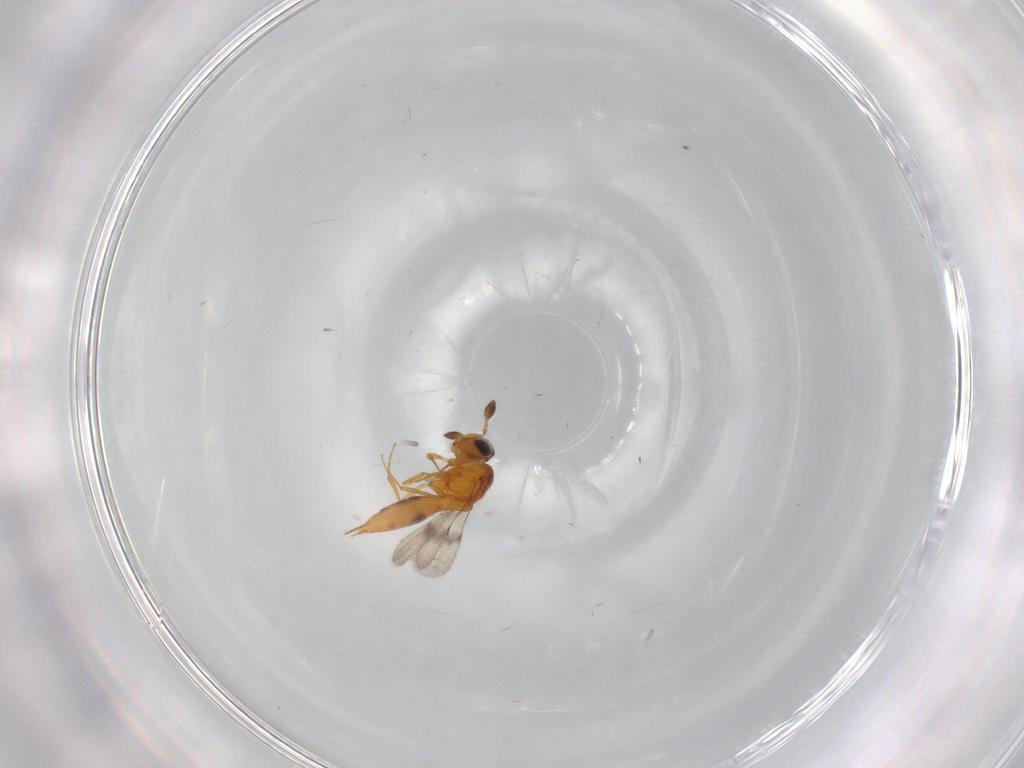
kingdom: Animalia
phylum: Arthropoda
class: Insecta
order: Hymenoptera
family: Scelionidae
